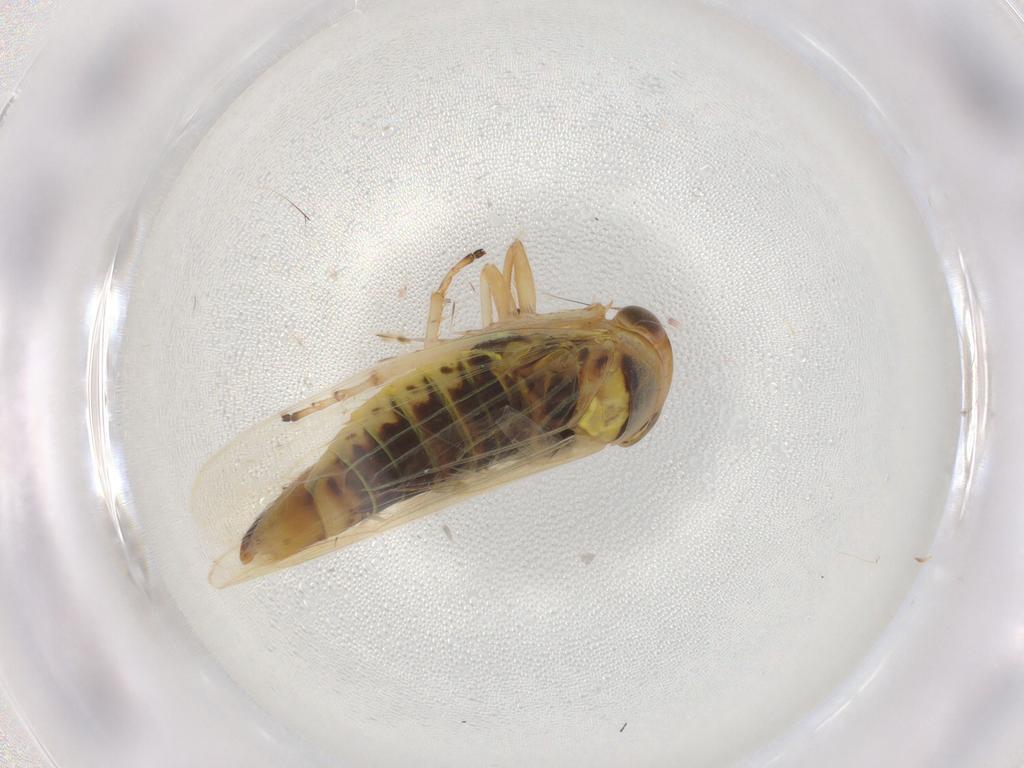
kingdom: Animalia
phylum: Arthropoda
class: Insecta
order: Hemiptera
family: Cicadellidae
